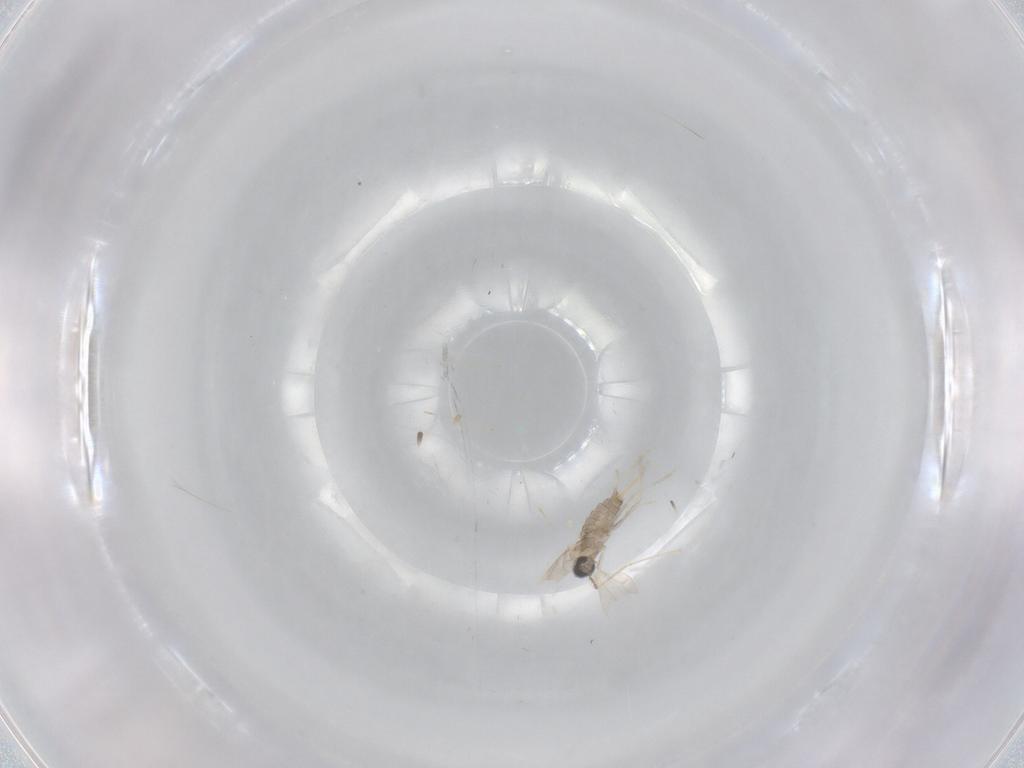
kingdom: Animalia
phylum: Arthropoda
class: Insecta
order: Diptera
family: Cecidomyiidae
